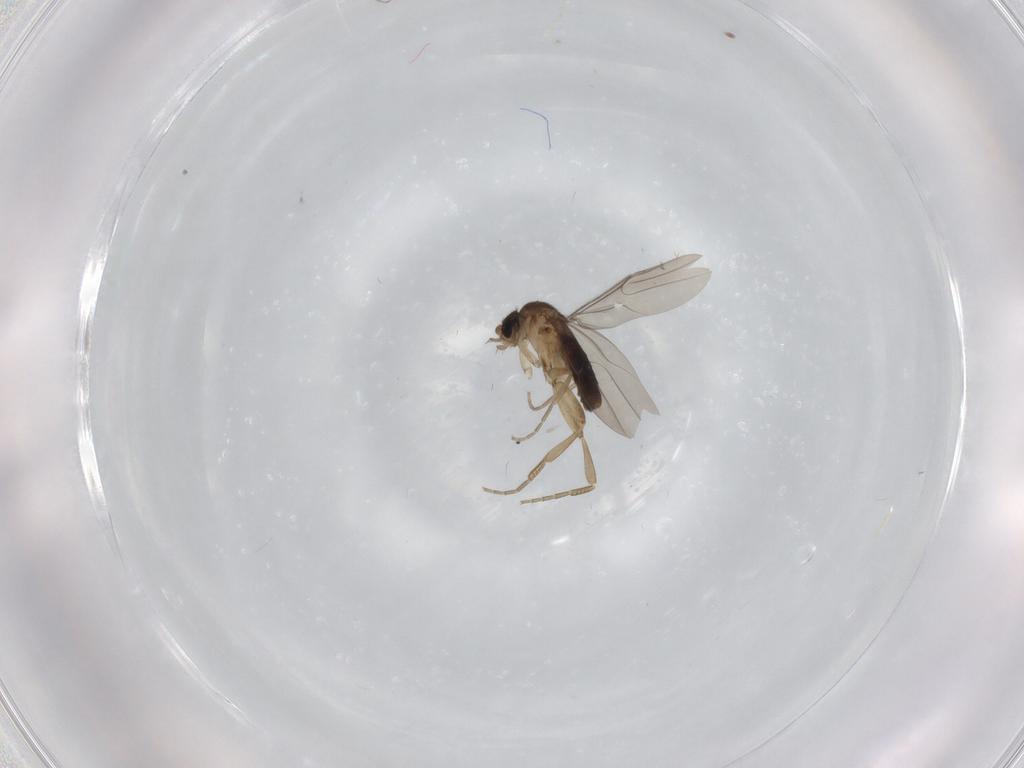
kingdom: Animalia
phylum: Arthropoda
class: Insecta
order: Diptera
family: Phoridae
